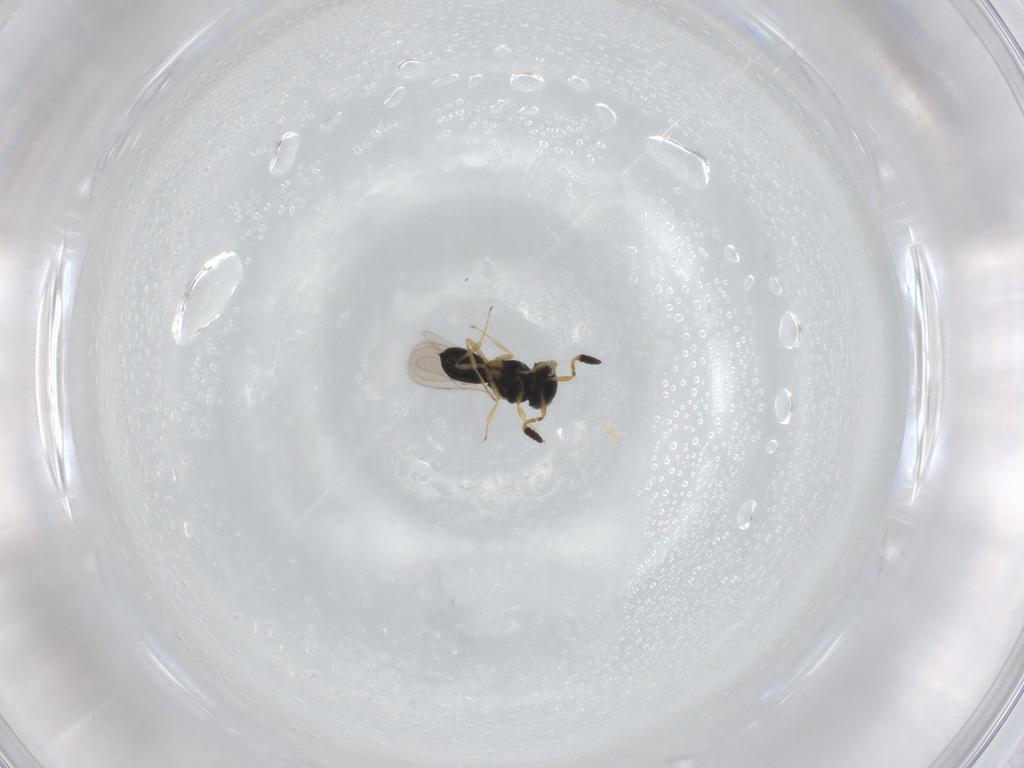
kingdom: Animalia
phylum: Arthropoda
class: Insecta
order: Hymenoptera
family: Scelionidae
